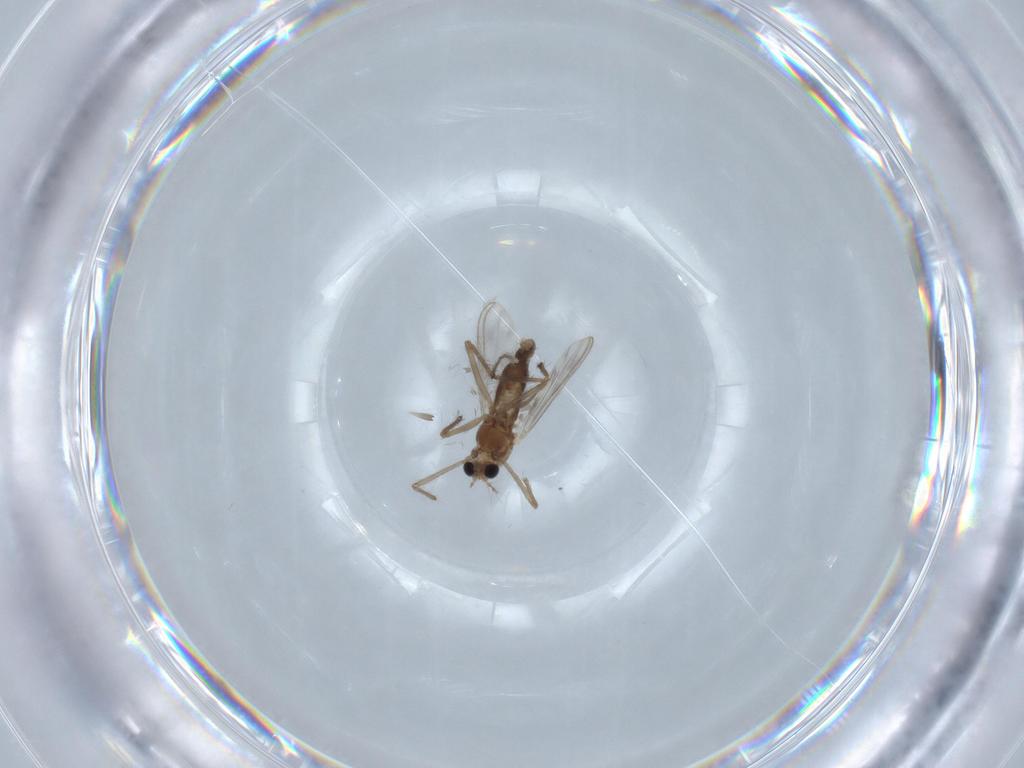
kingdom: Animalia
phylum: Arthropoda
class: Insecta
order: Diptera
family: Chironomidae
